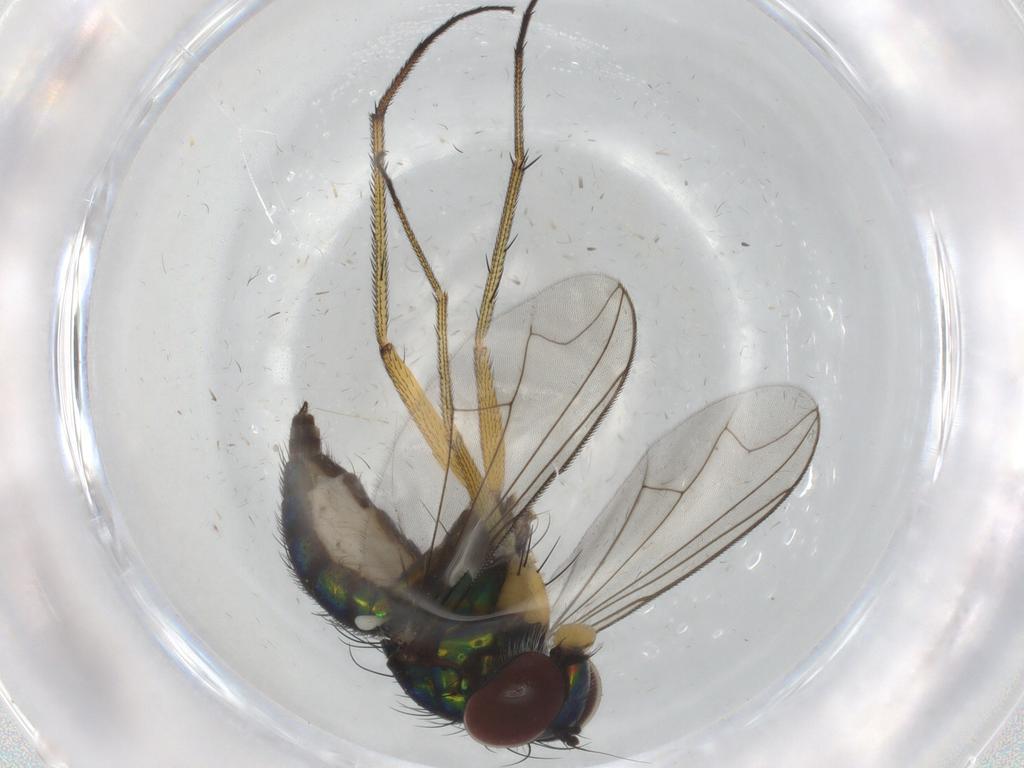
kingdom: Animalia
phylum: Arthropoda
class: Insecta
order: Diptera
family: Dolichopodidae
